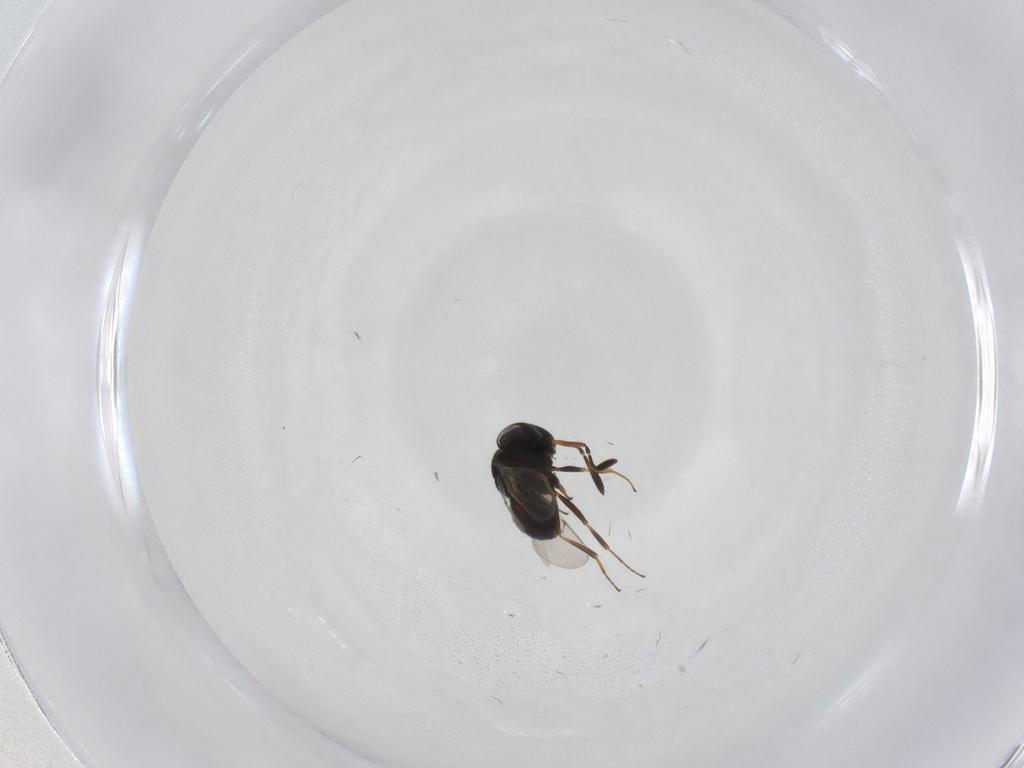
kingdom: Animalia
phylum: Arthropoda
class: Insecta
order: Hymenoptera
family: Scelionidae
